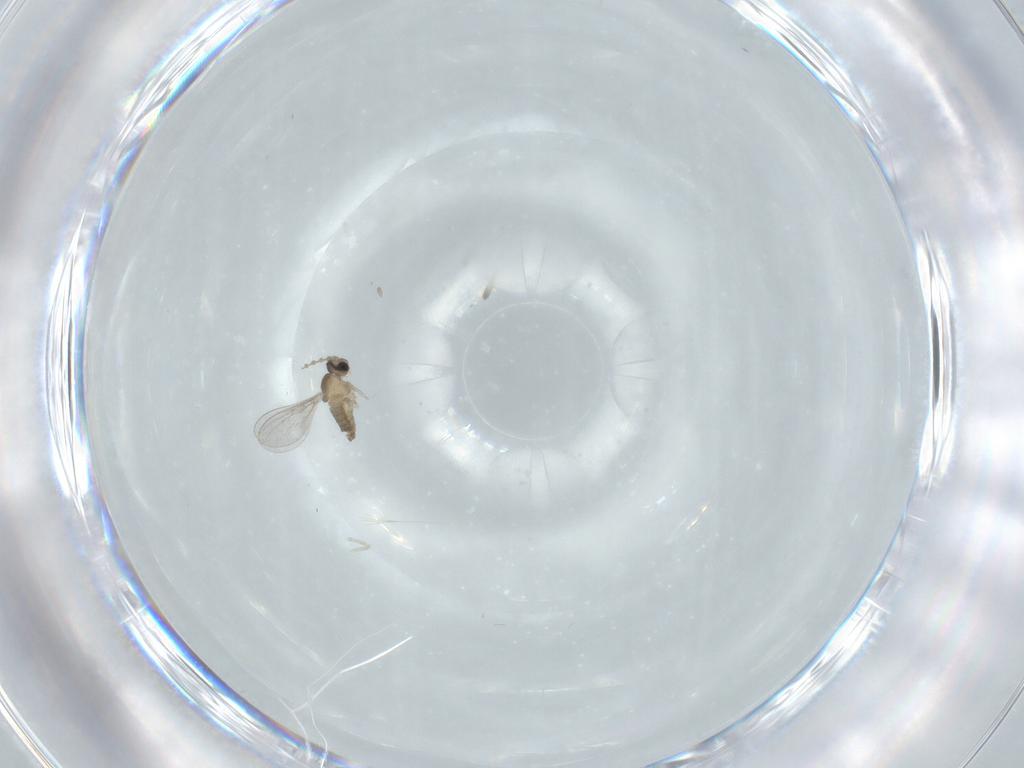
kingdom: Animalia
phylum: Arthropoda
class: Insecta
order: Diptera
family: Cecidomyiidae
